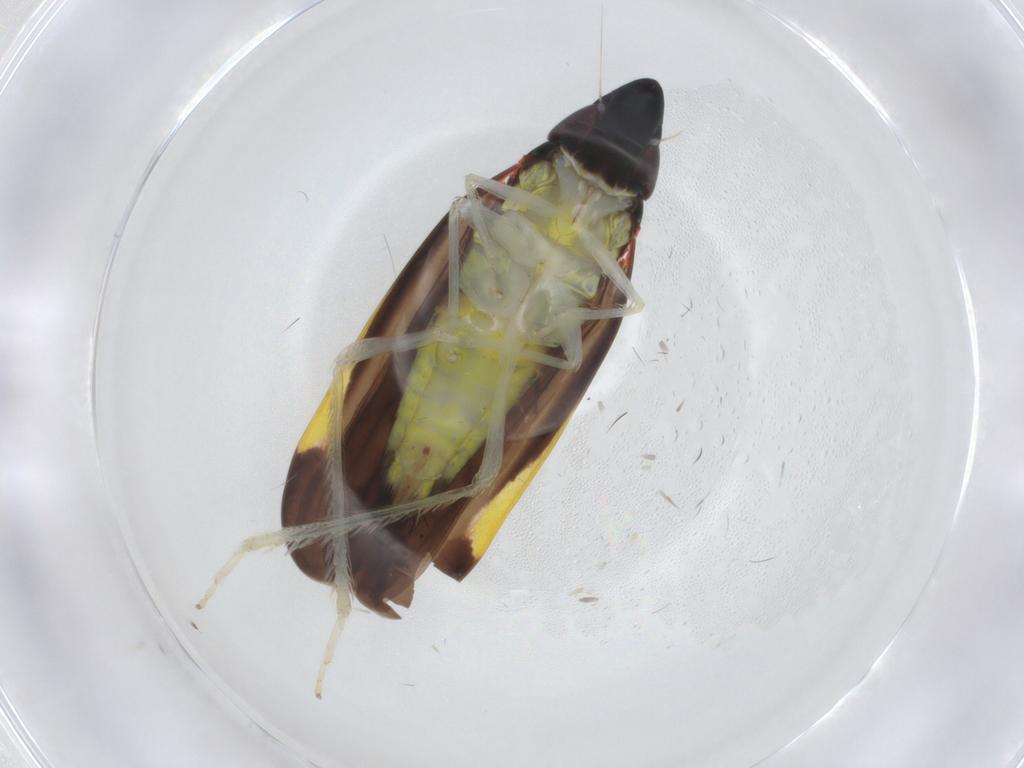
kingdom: Animalia
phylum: Arthropoda
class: Insecta
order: Hemiptera
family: Cicadellidae
